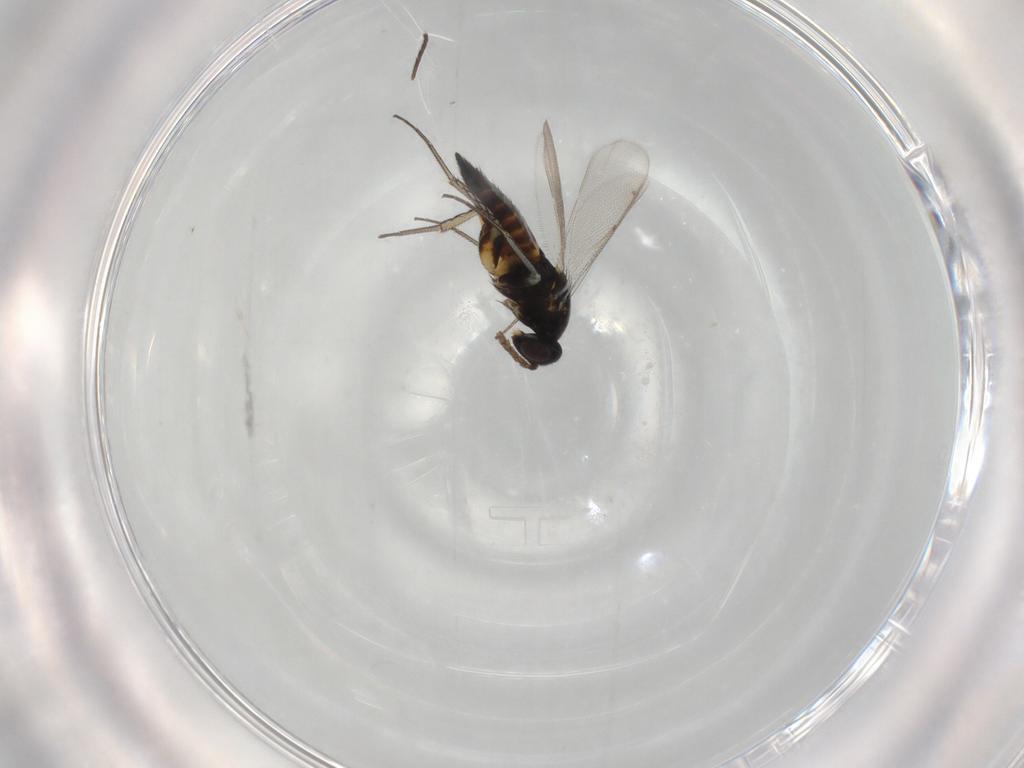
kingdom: Animalia
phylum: Arthropoda
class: Insecta
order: Hymenoptera
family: Eulophidae
